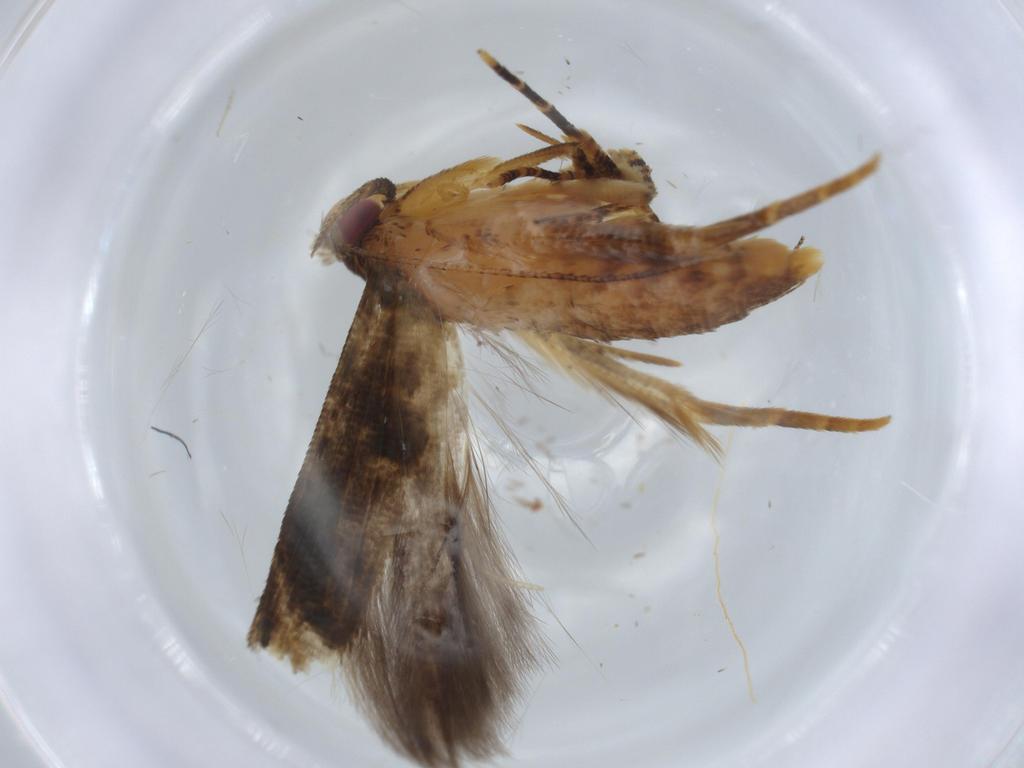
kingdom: Animalia
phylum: Arthropoda
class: Insecta
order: Lepidoptera
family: Cosmopterigidae
